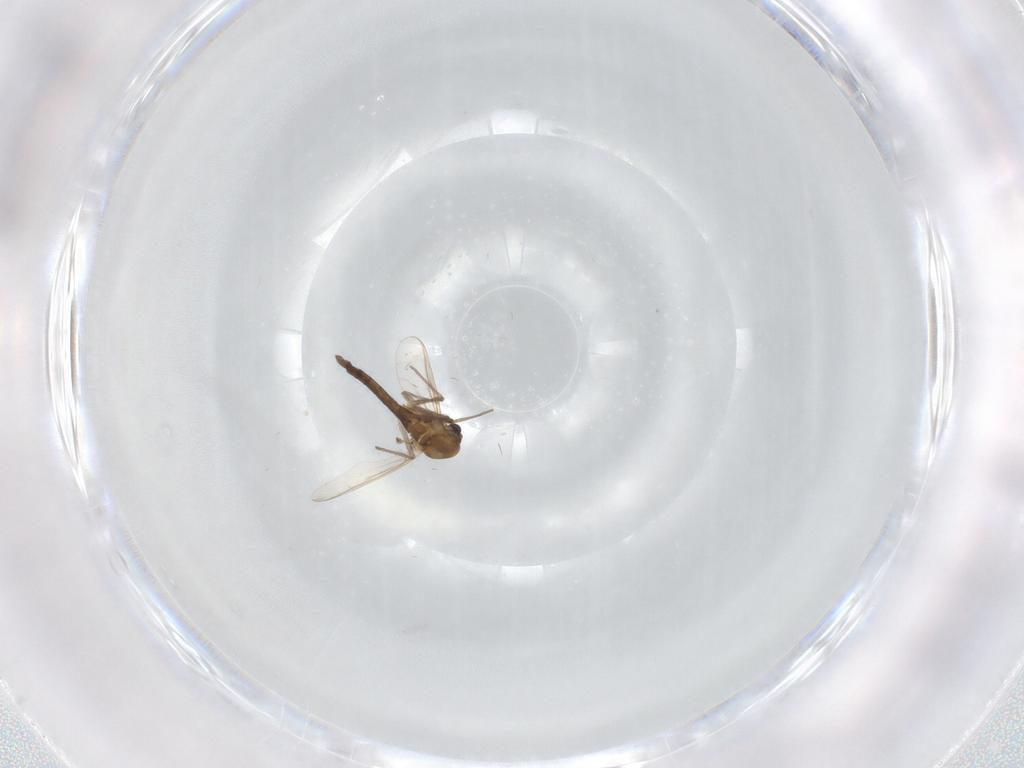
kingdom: Animalia
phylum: Arthropoda
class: Insecta
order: Diptera
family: Chironomidae
